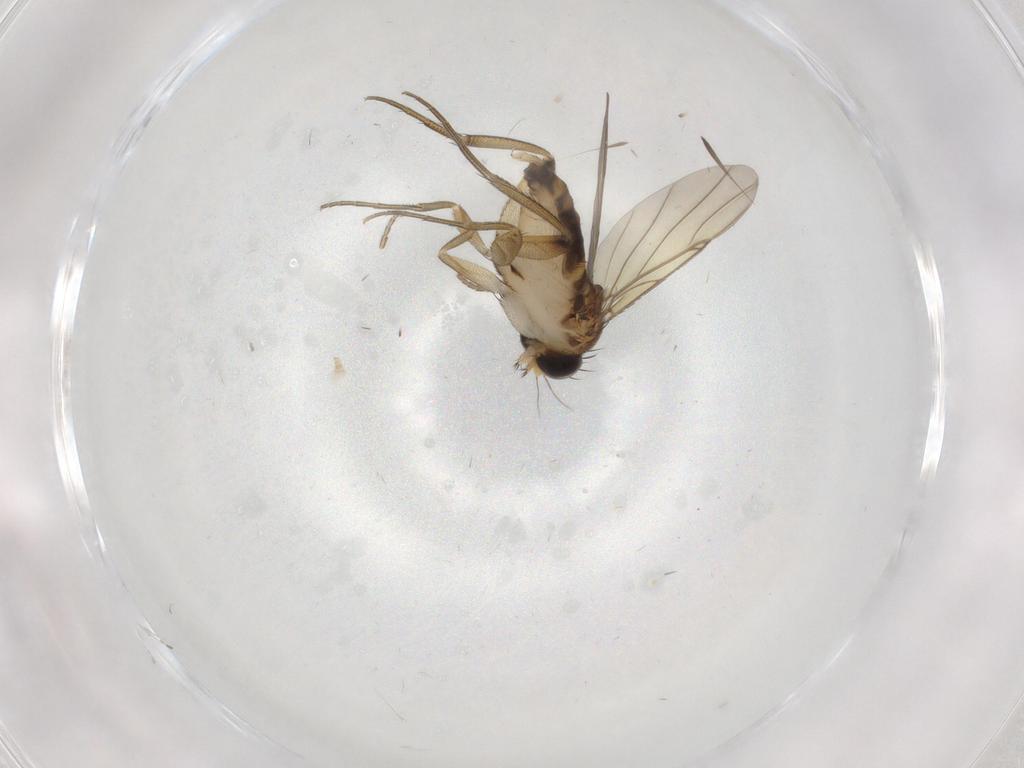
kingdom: Animalia
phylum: Arthropoda
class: Insecta
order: Diptera
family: Phoridae
